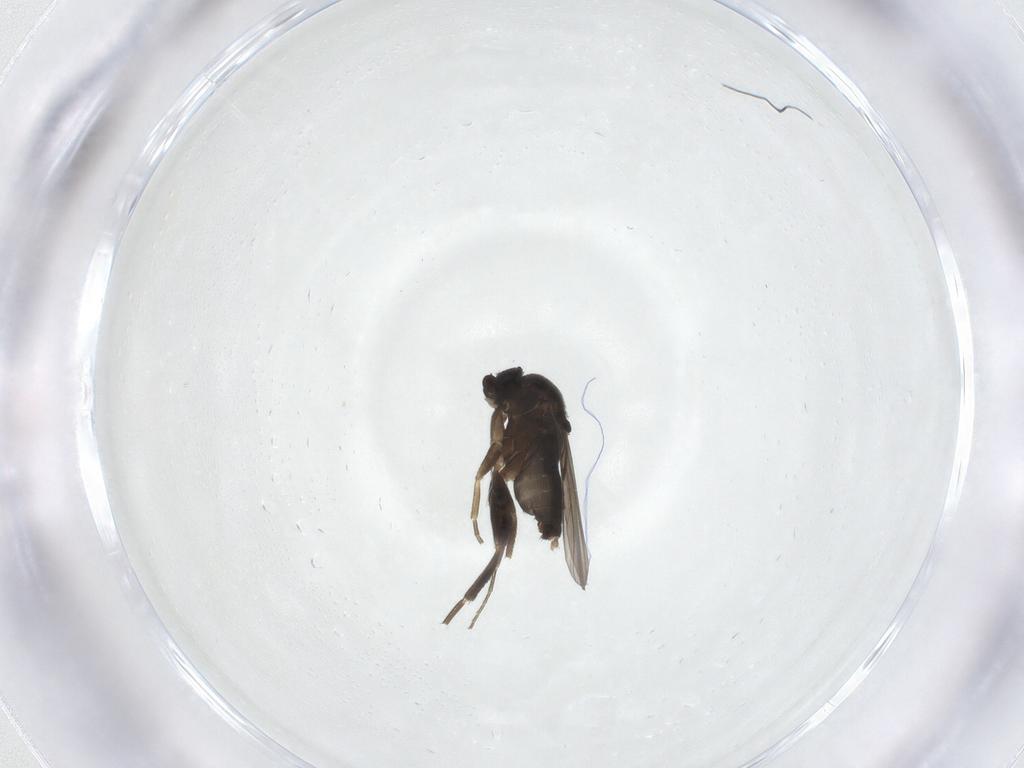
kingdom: Animalia
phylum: Arthropoda
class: Insecta
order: Diptera
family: Phoridae
